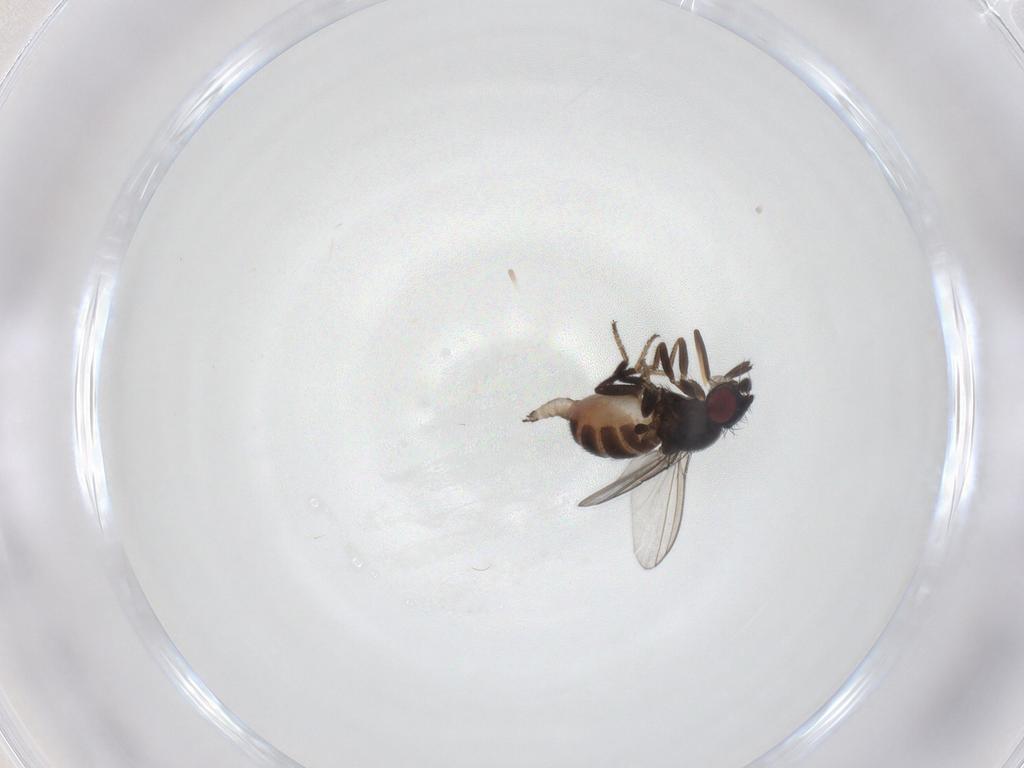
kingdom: Animalia
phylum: Arthropoda
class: Insecta
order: Diptera
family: Milichiidae
